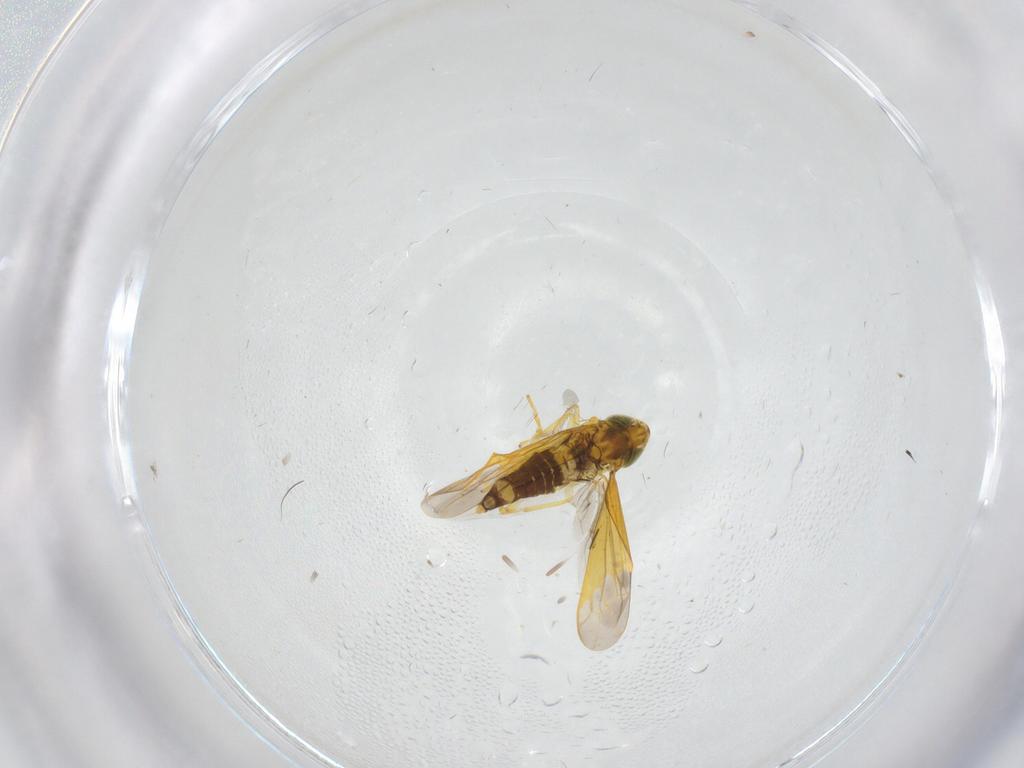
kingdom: Animalia
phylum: Arthropoda
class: Insecta
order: Hemiptera
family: Cicadellidae
